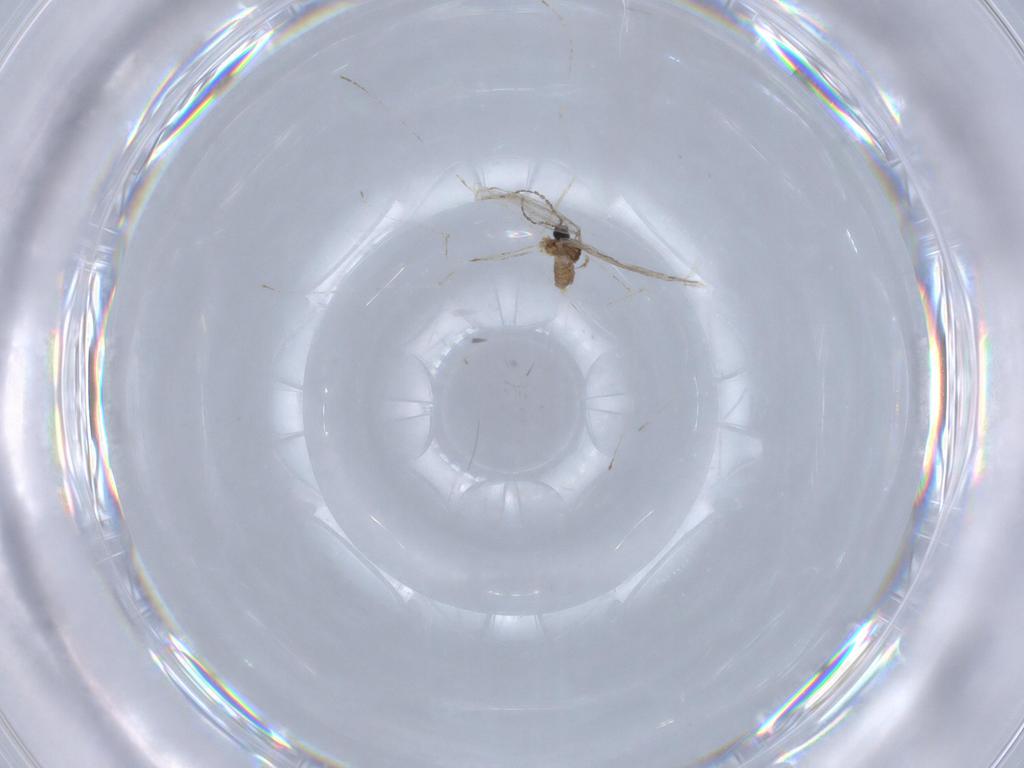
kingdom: Animalia
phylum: Arthropoda
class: Insecta
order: Diptera
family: Cecidomyiidae
